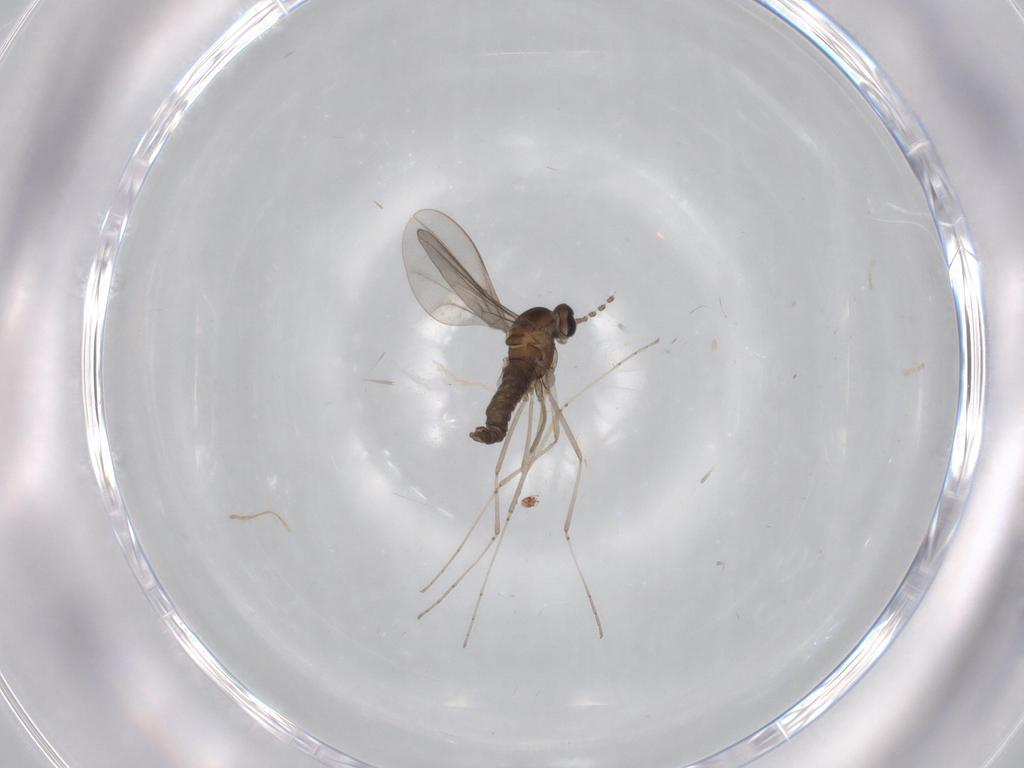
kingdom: Animalia
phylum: Arthropoda
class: Insecta
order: Diptera
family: Cecidomyiidae
